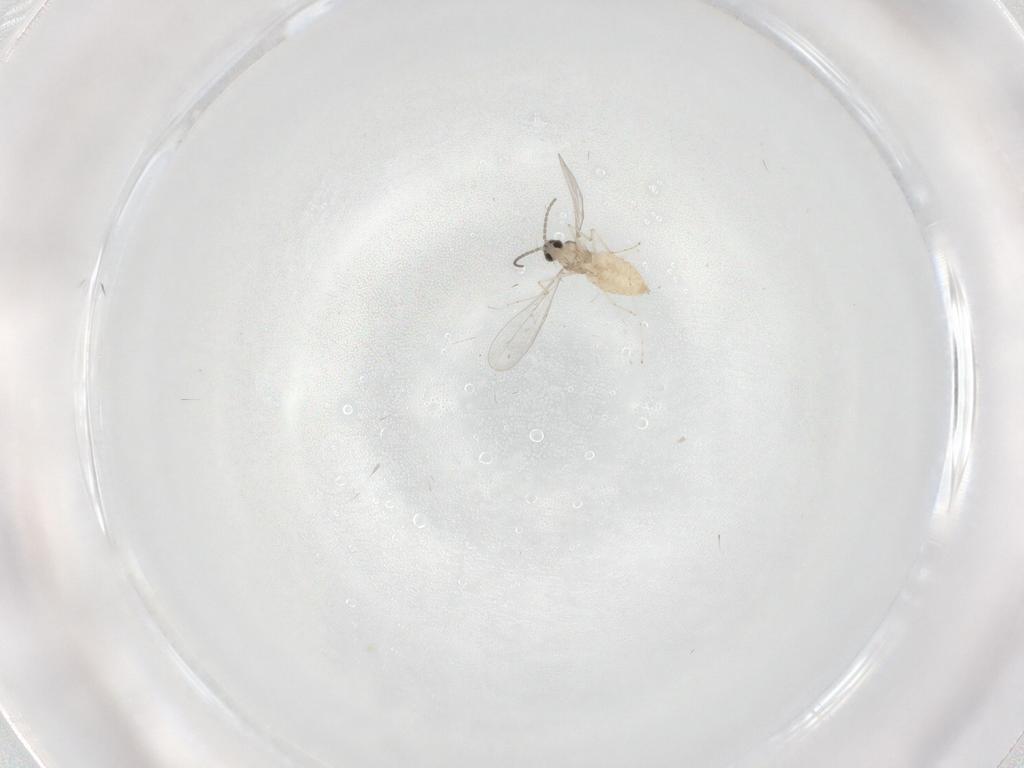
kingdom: Animalia
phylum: Arthropoda
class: Insecta
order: Diptera
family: Cecidomyiidae
